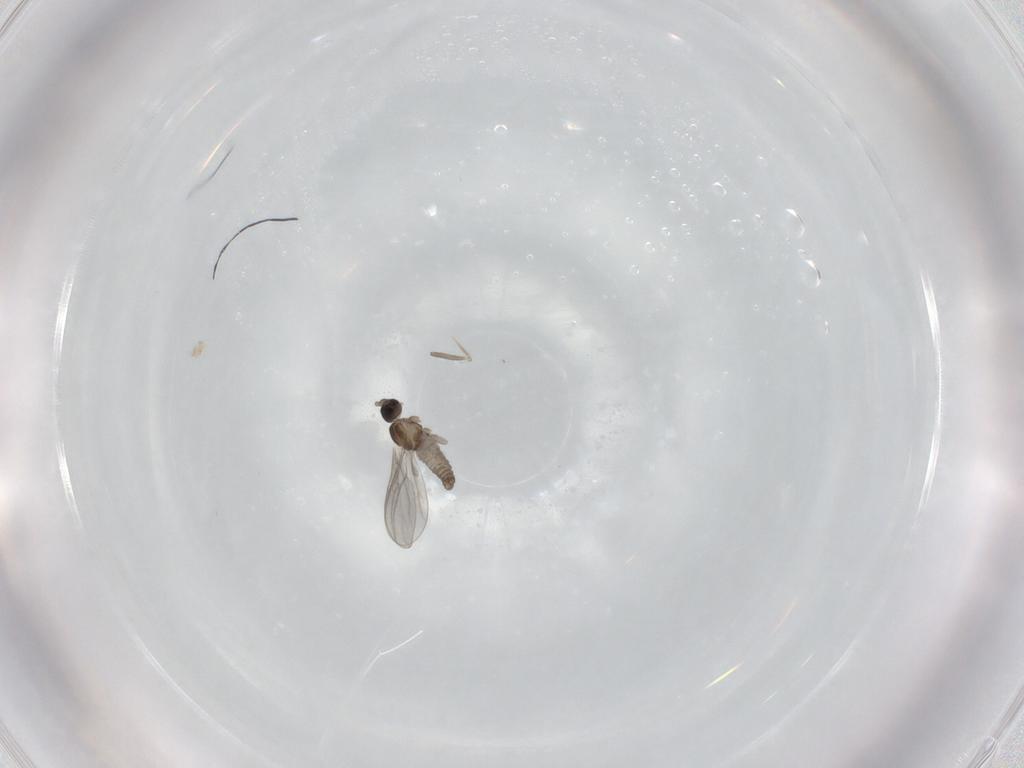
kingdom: Animalia
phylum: Arthropoda
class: Insecta
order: Diptera
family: Cecidomyiidae
